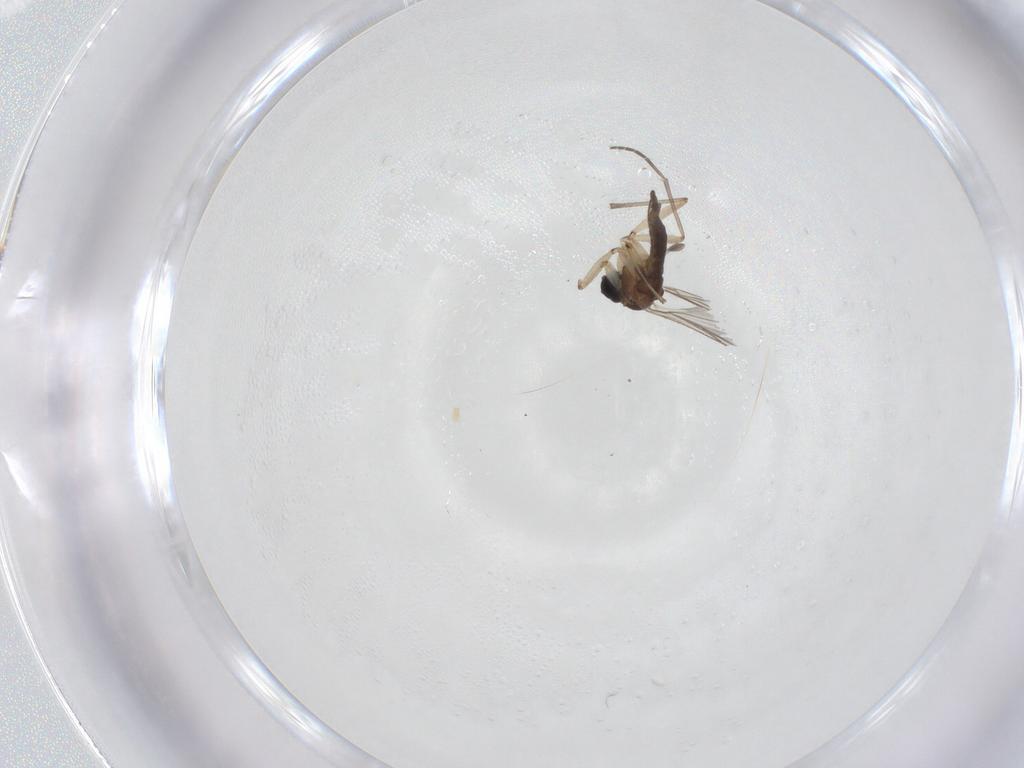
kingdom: Animalia
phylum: Arthropoda
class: Insecta
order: Diptera
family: Sciaridae
